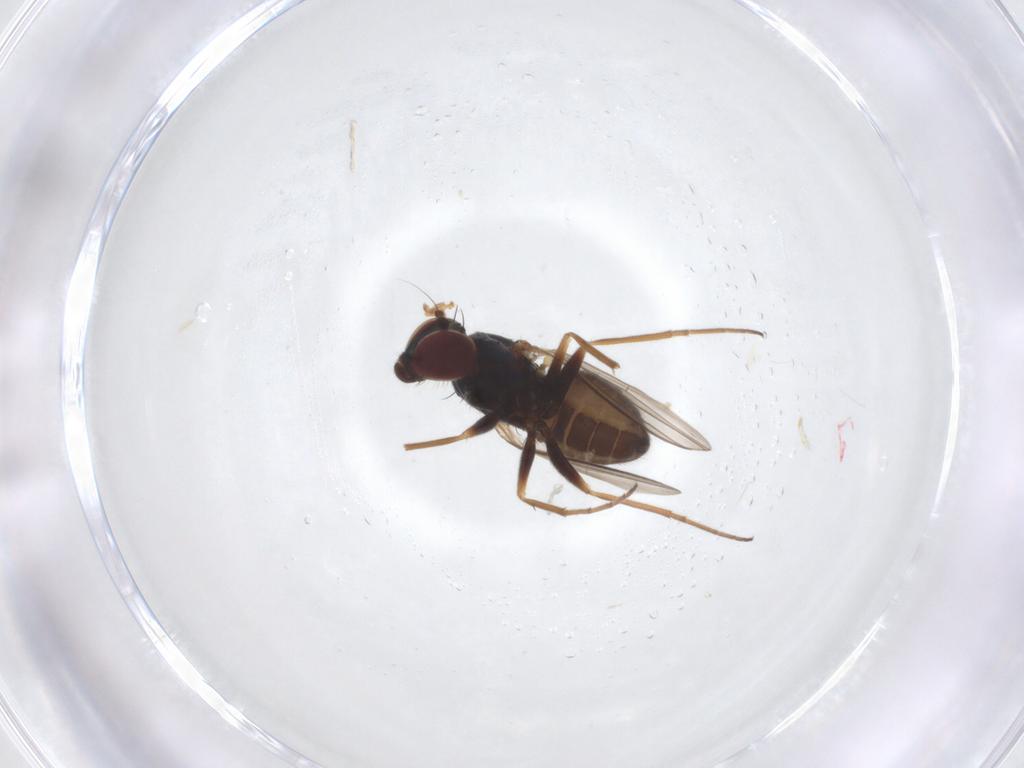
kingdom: Animalia
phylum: Arthropoda
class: Insecta
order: Diptera
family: Dolichopodidae
